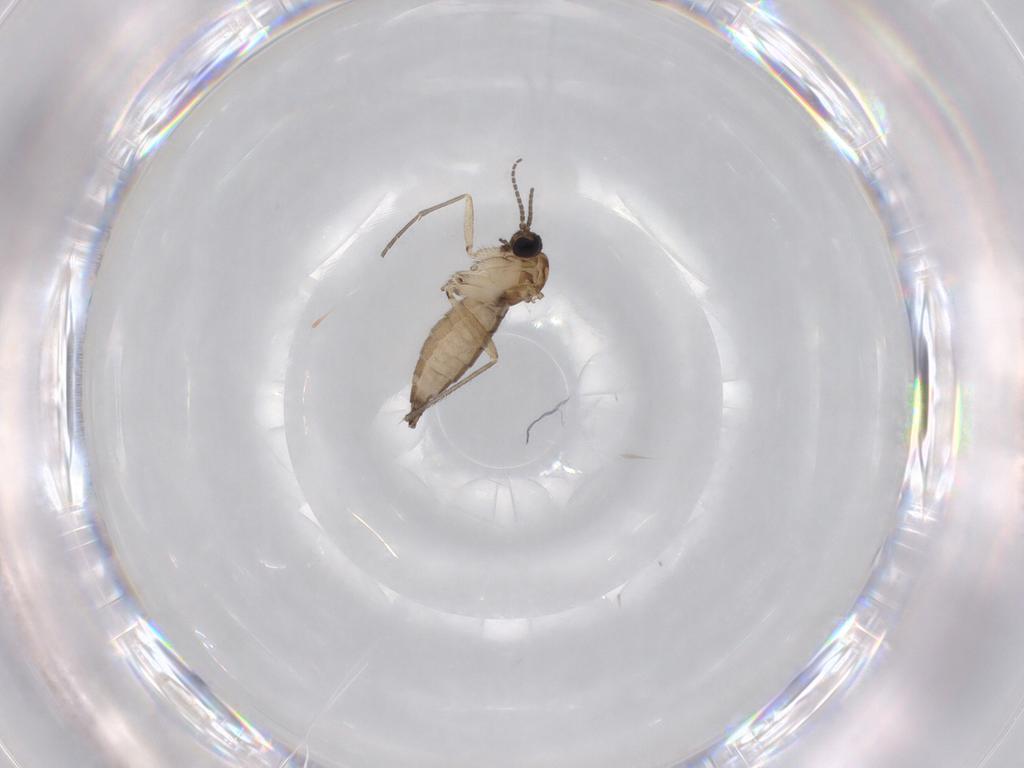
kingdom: Animalia
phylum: Arthropoda
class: Insecta
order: Diptera
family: Sciaridae
